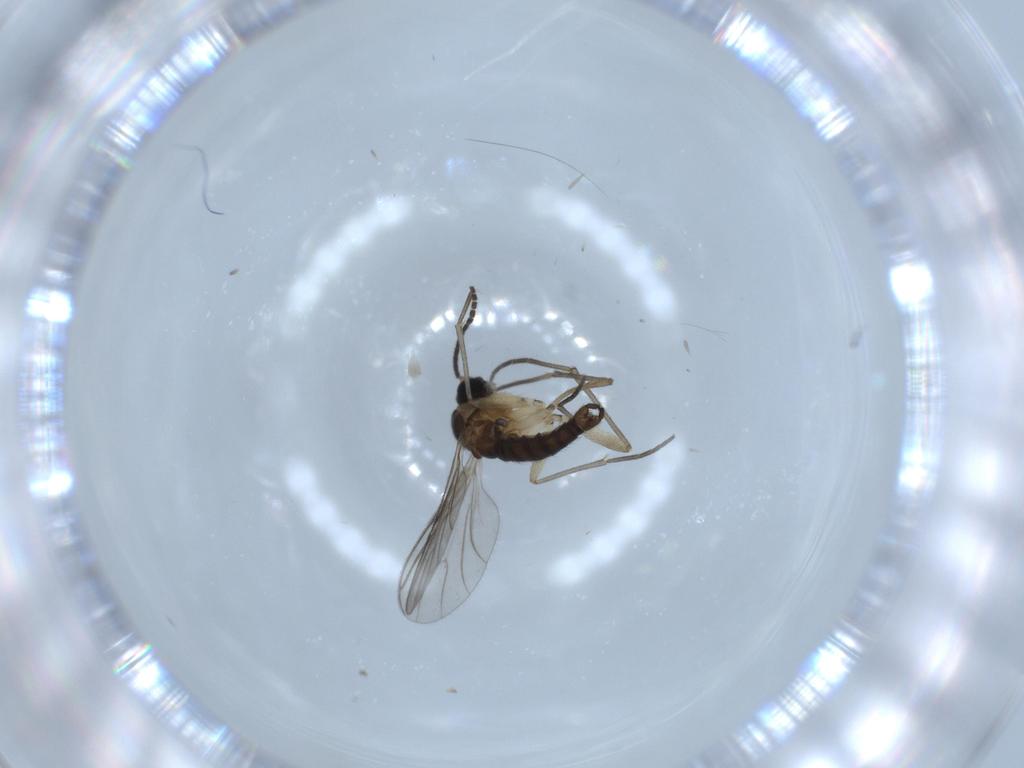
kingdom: Animalia
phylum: Arthropoda
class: Insecta
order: Diptera
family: Sciaridae
